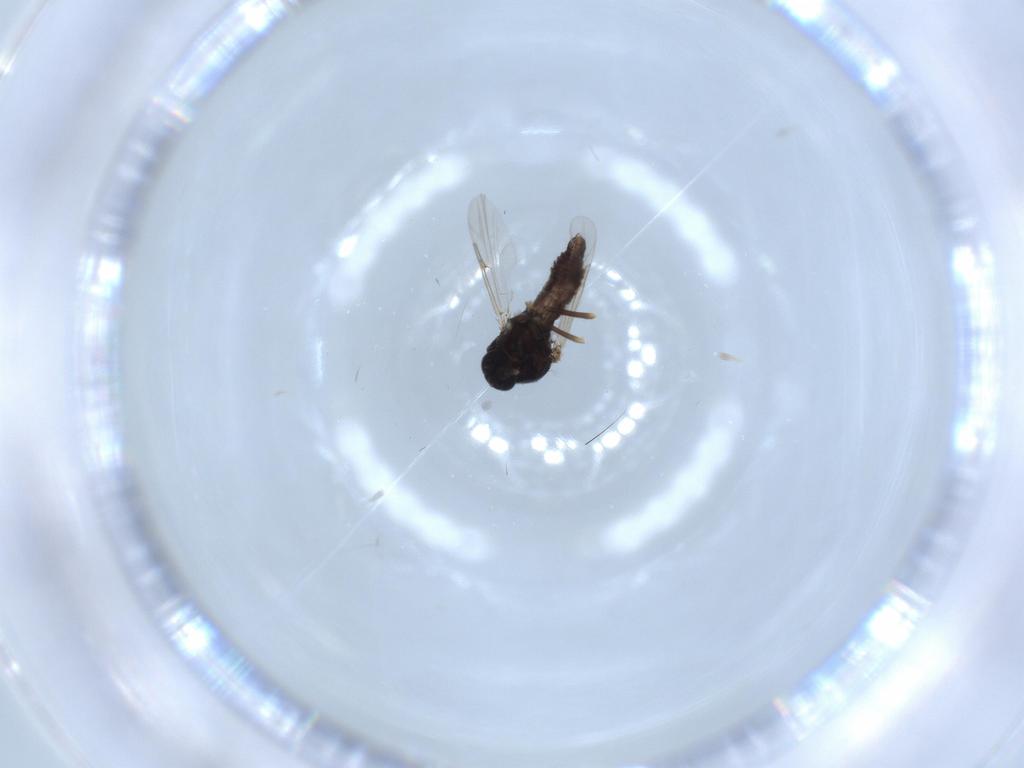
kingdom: Animalia
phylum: Arthropoda
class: Insecta
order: Diptera
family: Ceratopogonidae
